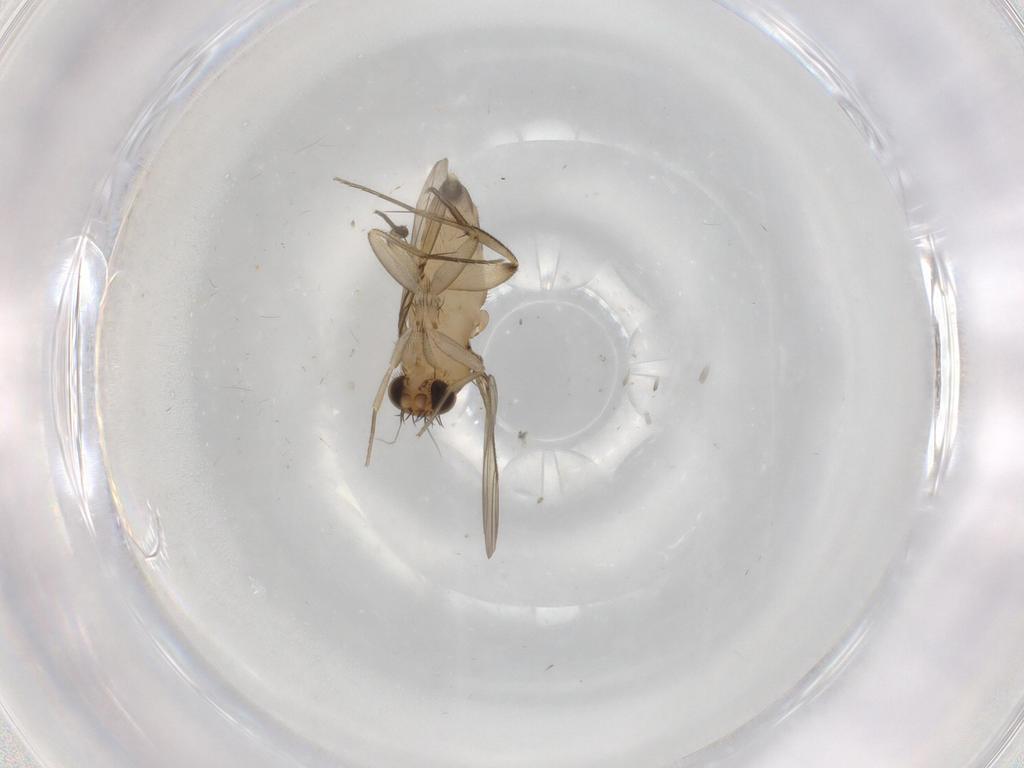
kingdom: Animalia
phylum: Arthropoda
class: Insecta
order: Diptera
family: Phoridae
